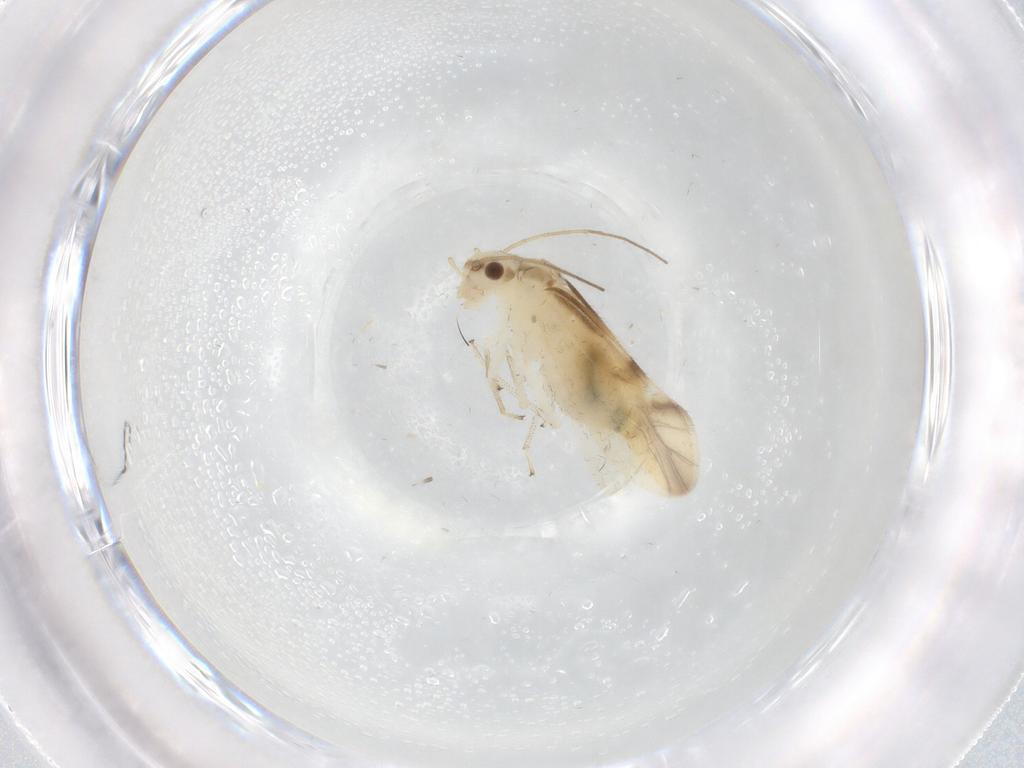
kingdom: Animalia
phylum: Arthropoda
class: Insecta
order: Psocodea
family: Caeciliusidae
